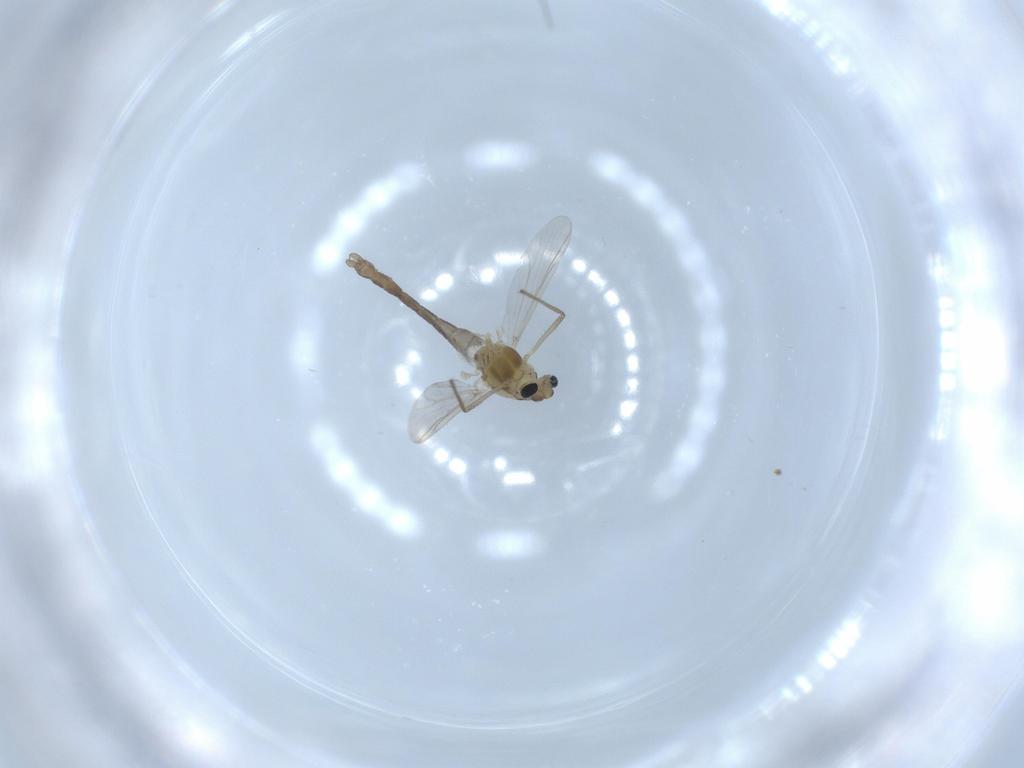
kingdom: Animalia
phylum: Arthropoda
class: Insecta
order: Diptera
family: Chironomidae
